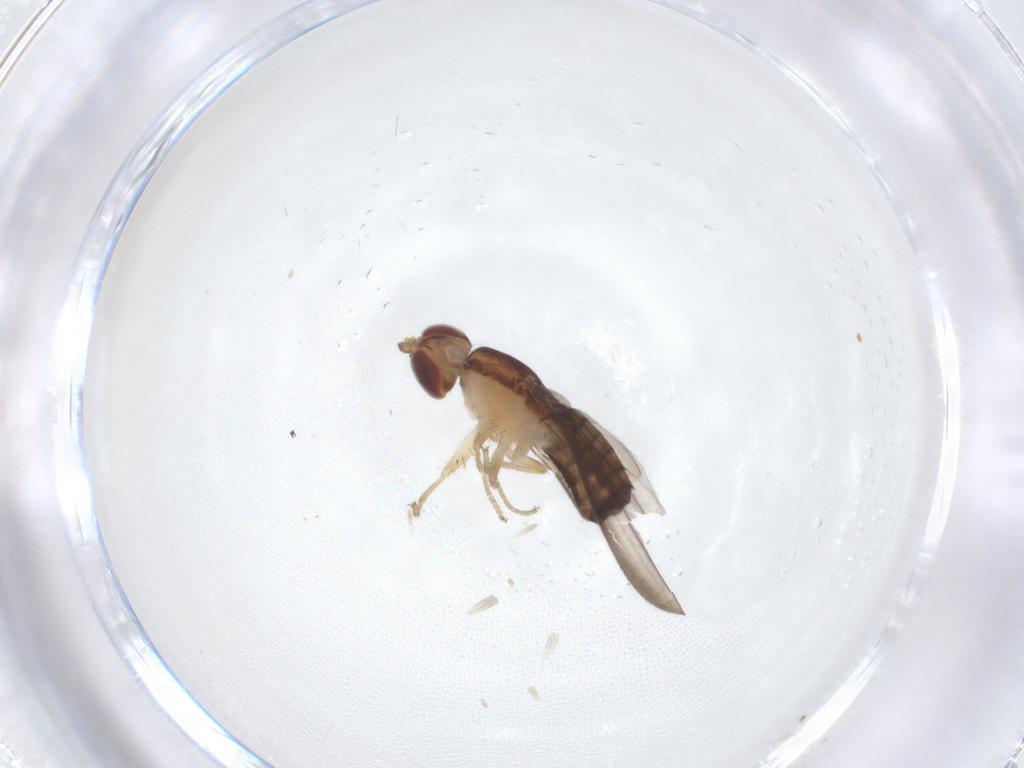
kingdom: Animalia
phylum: Arthropoda
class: Insecta
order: Diptera
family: Anthomyzidae
